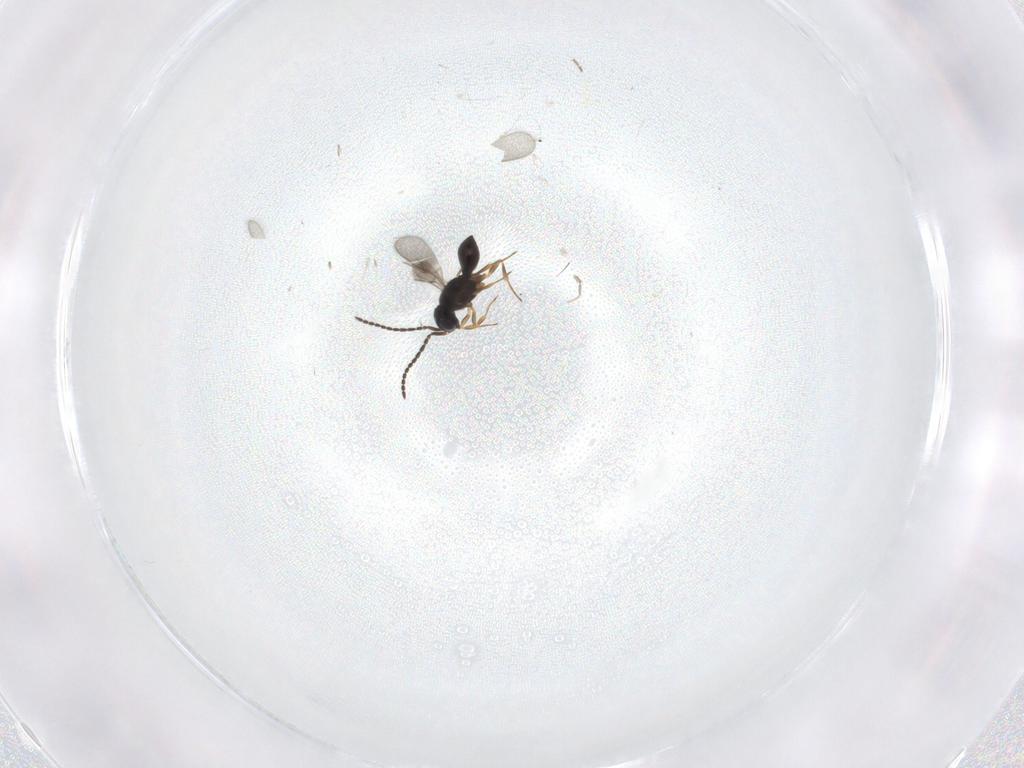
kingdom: Animalia
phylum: Arthropoda
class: Insecta
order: Hymenoptera
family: Scelionidae
